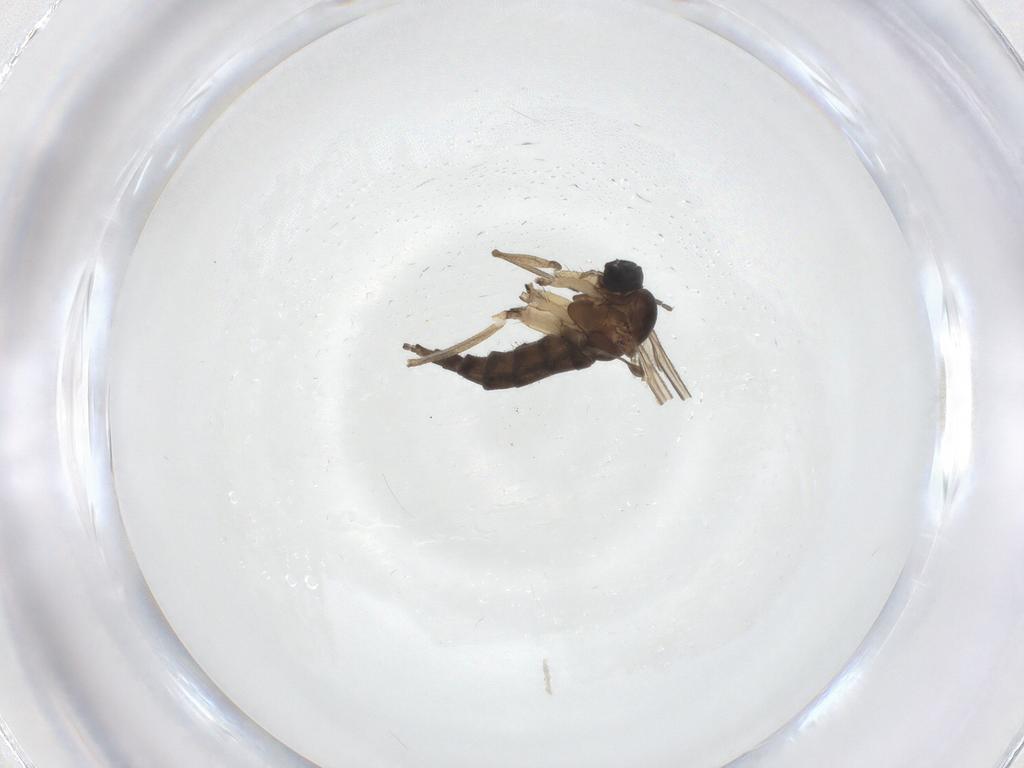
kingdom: Animalia
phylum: Arthropoda
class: Insecta
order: Diptera
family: Sciaridae
